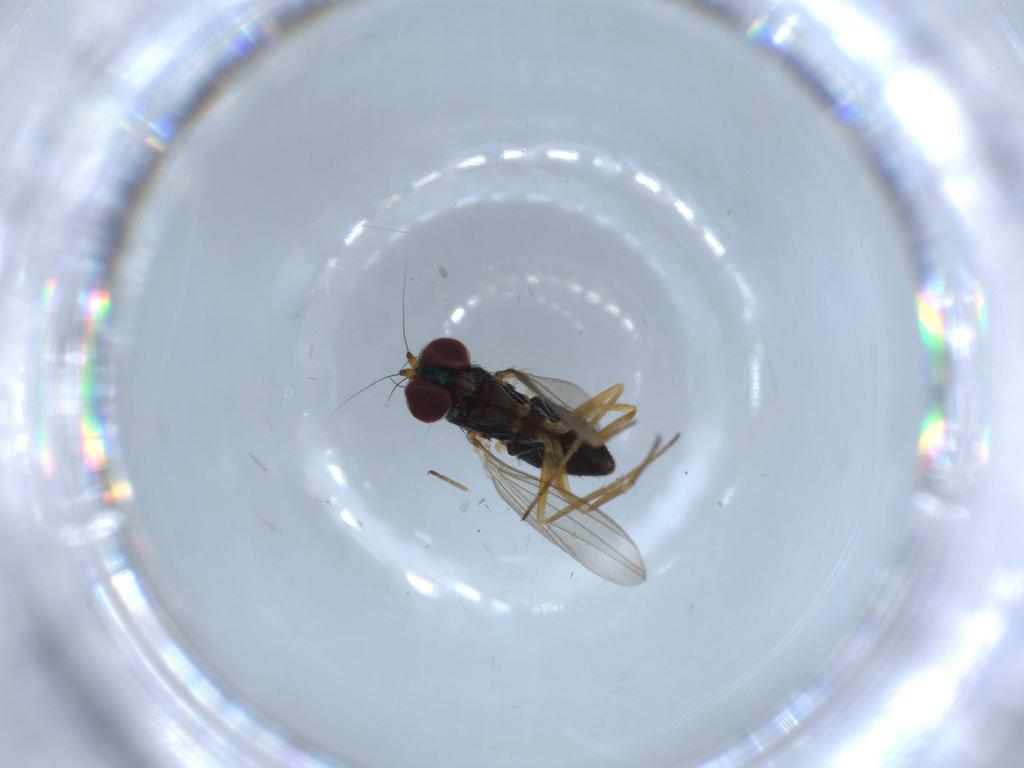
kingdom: Animalia
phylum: Arthropoda
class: Insecta
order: Diptera
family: Dolichopodidae
